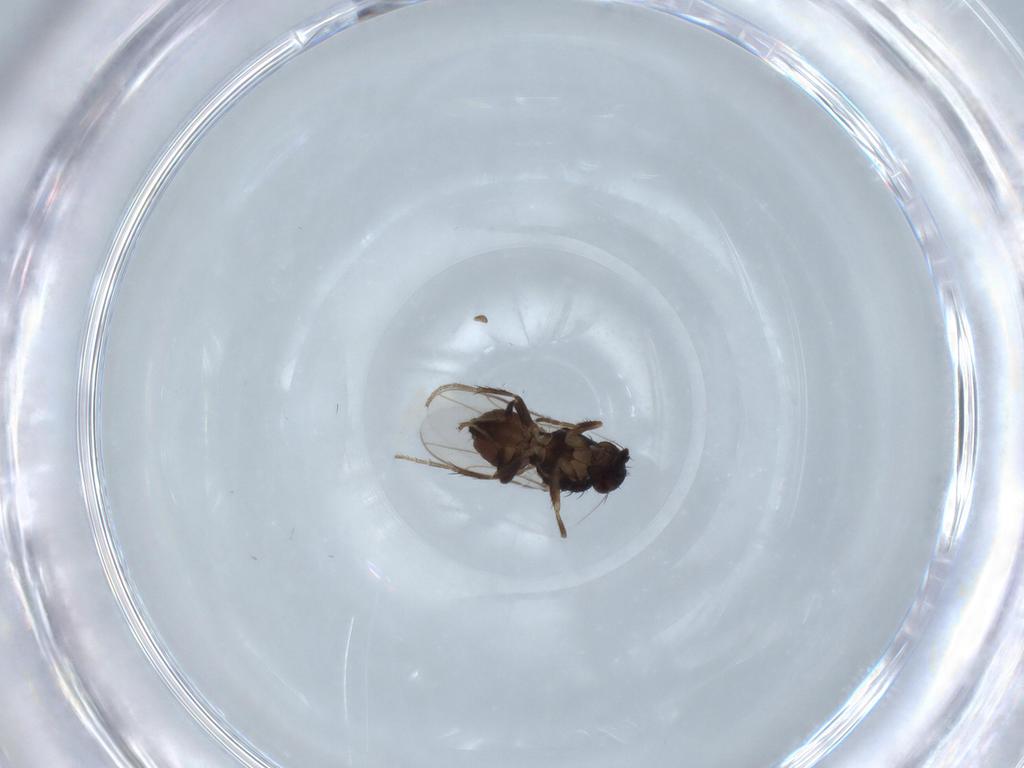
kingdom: Animalia
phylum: Arthropoda
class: Insecta
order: Diptera
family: Sphaeroceridae
